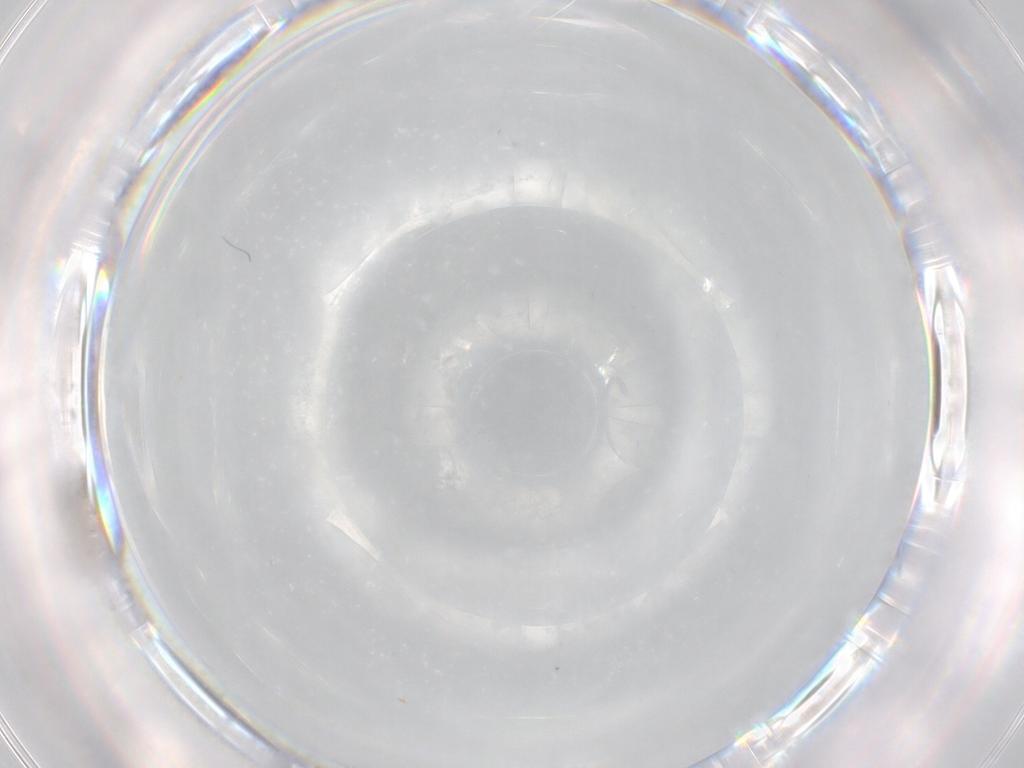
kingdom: Animalia
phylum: Arthropoda
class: Insecta
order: Diptera
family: Cecidomyiidae
